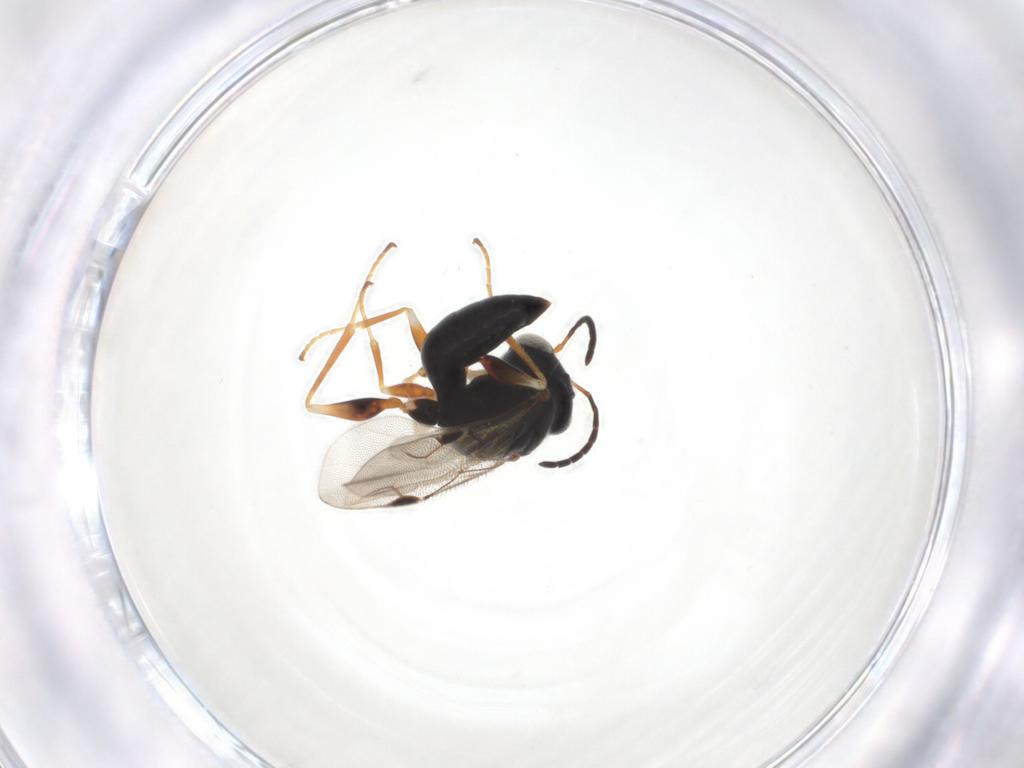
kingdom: Animalia
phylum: Arthropoda
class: Insecta
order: Hymenoptera
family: Dryinidae
